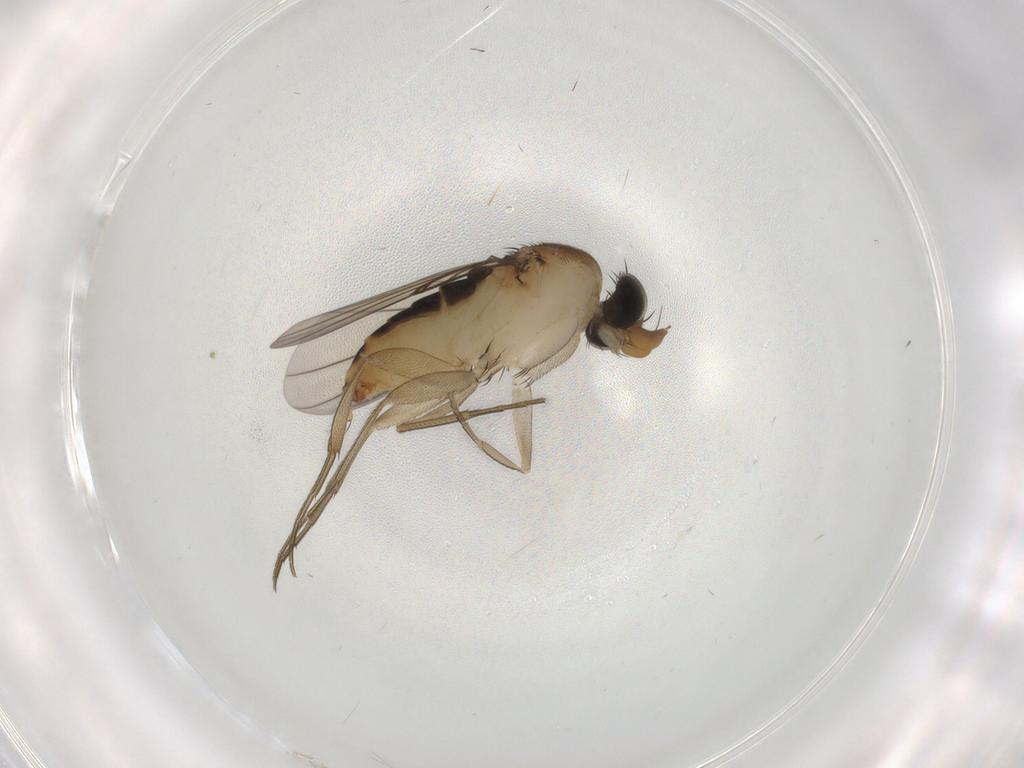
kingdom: Animalia
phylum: Arthropoda
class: Insecta
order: Diptera
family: Phoridae
